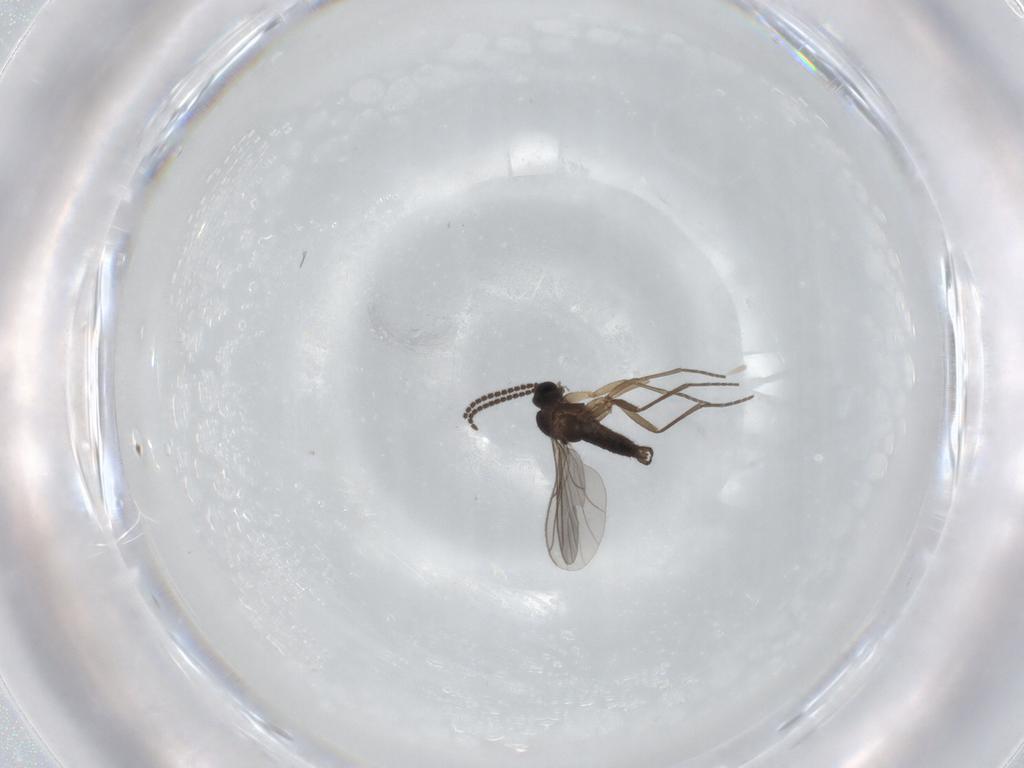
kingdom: Animalia
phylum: Arthropoda
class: Insecta
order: Diptera
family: Sciaridae
